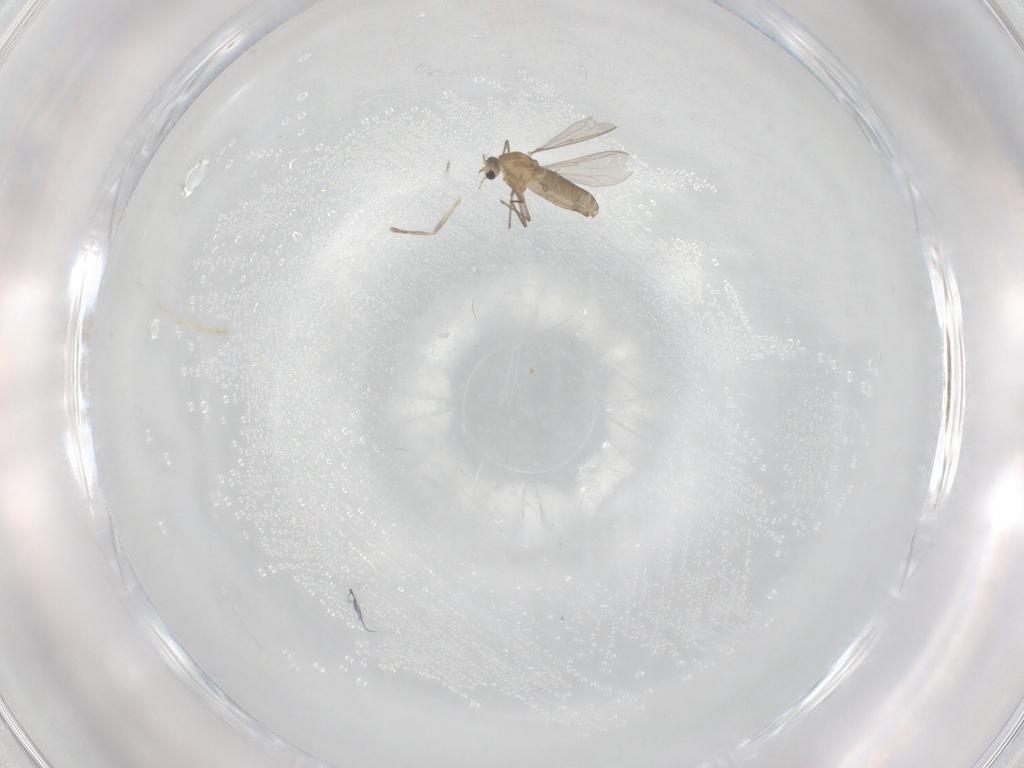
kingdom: Animalia
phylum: Arthropoda
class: Insecta
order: Diptera
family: Chironomidae
